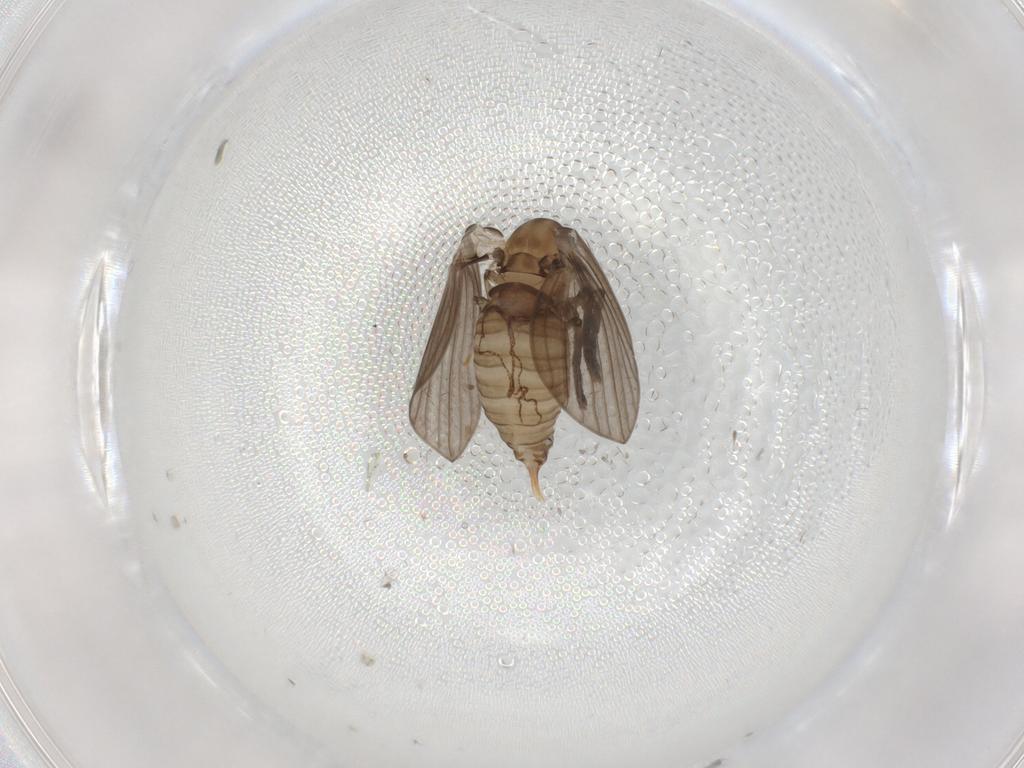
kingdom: Animalia
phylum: Arthropoda
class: Insecta
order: Diptera
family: Psychodidae
